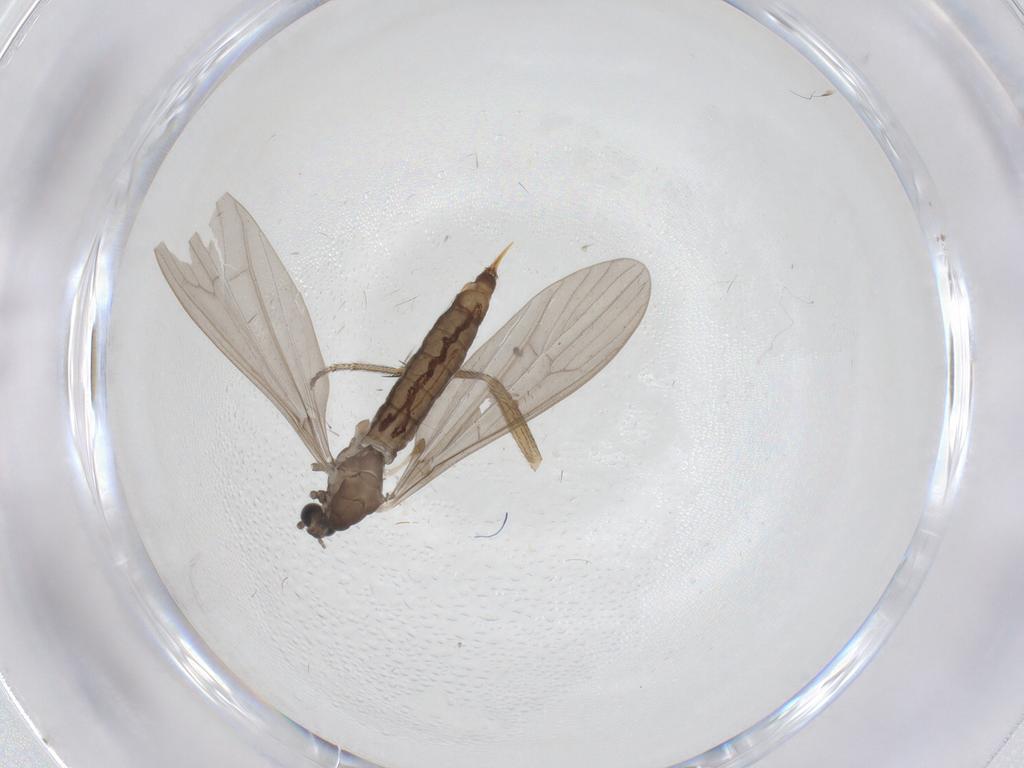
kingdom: Animalia
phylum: Arthropoda
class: Insecta
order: Diptera
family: Limoniidae
